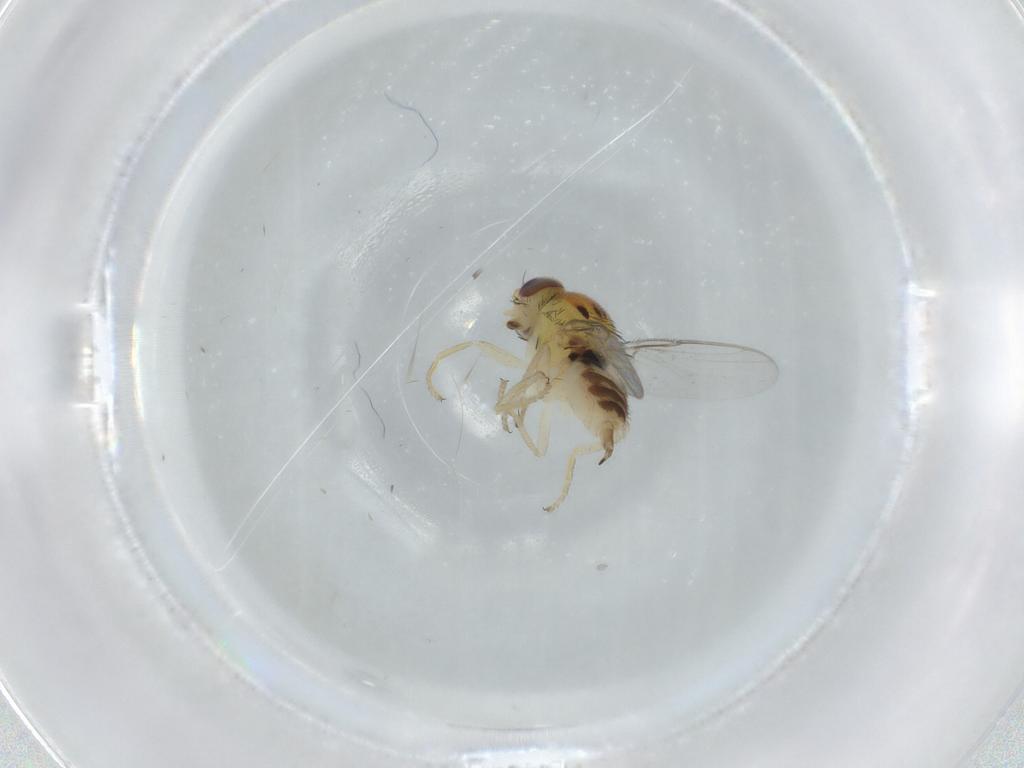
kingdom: Animalia
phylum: Arthropoda
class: Insecta
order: Diptera
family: Chloropidae
